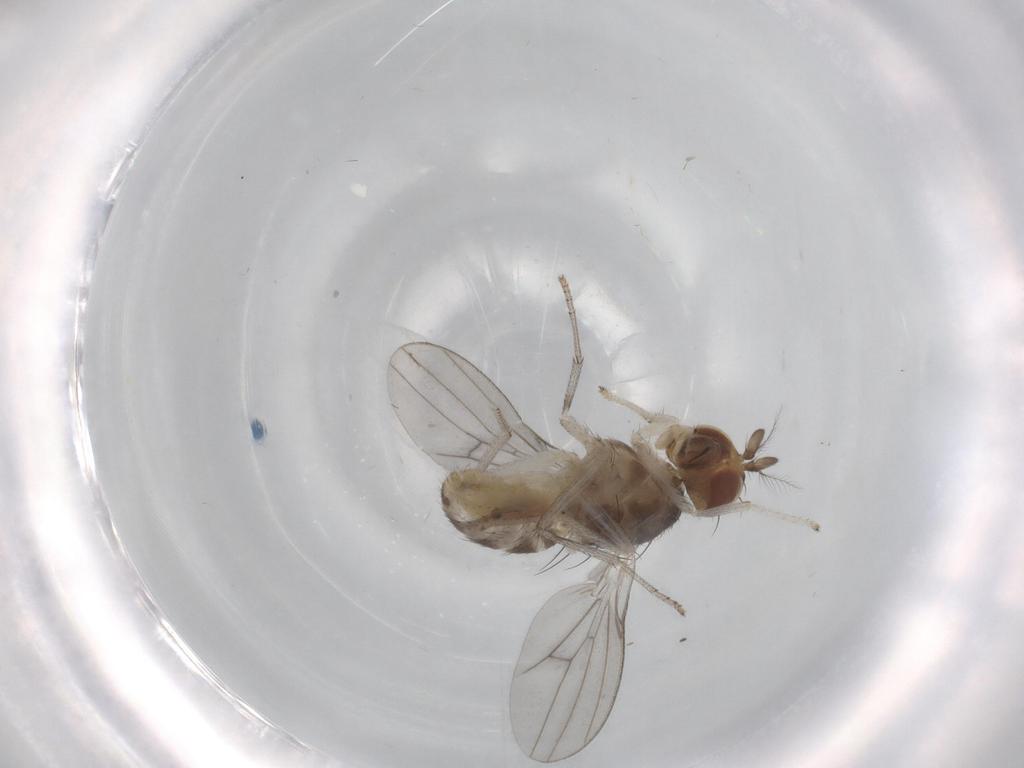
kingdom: Animalia
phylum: Arthropoda
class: Insecta
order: Diptera
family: Chironomidae
